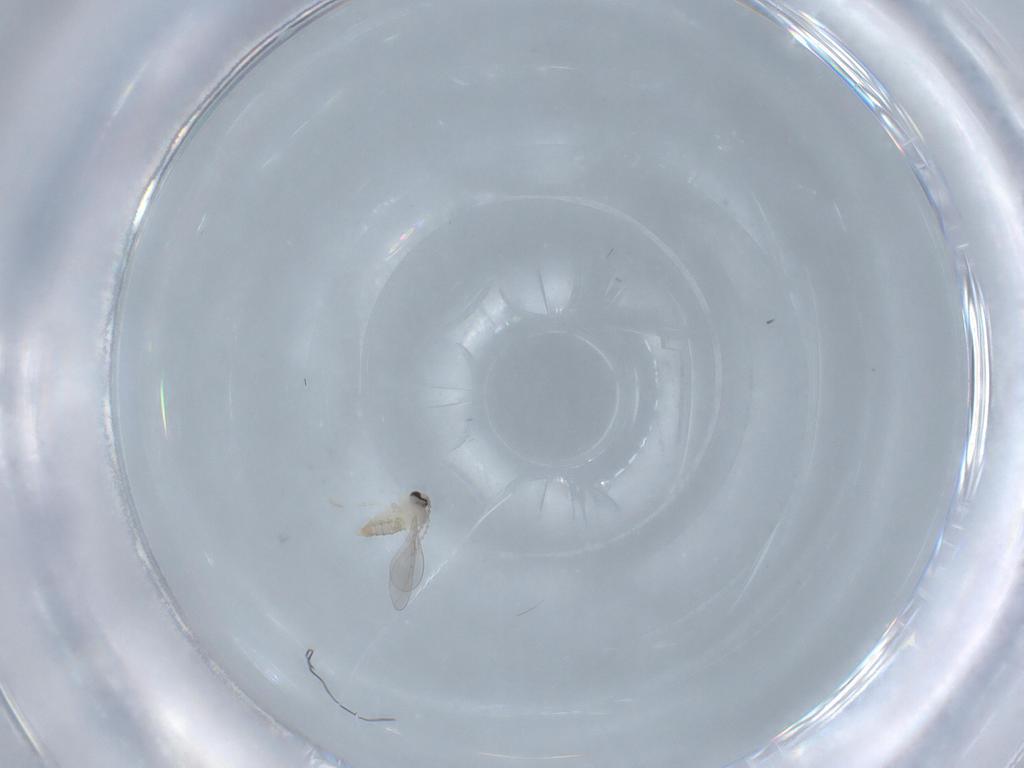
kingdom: Animalia
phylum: Arthropoda
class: Insecta
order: Diptera
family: Cecidomyiidae
